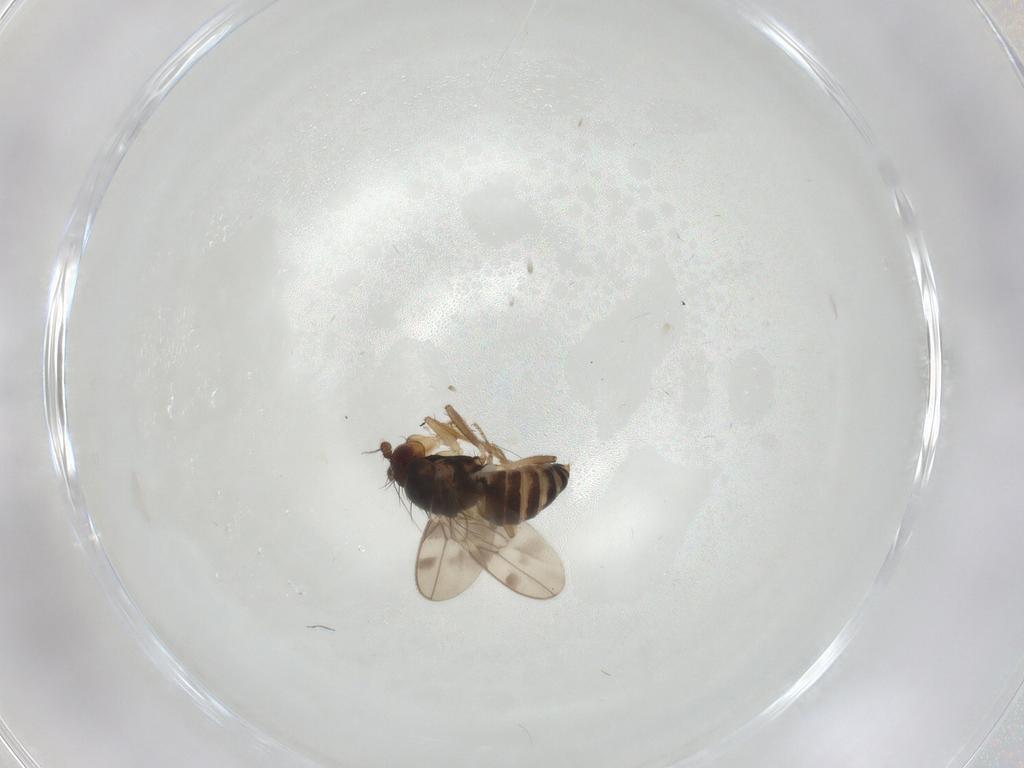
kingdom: Animalia
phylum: Arthropoda
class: Insecta
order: Diptera
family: Sphaeroceridae
